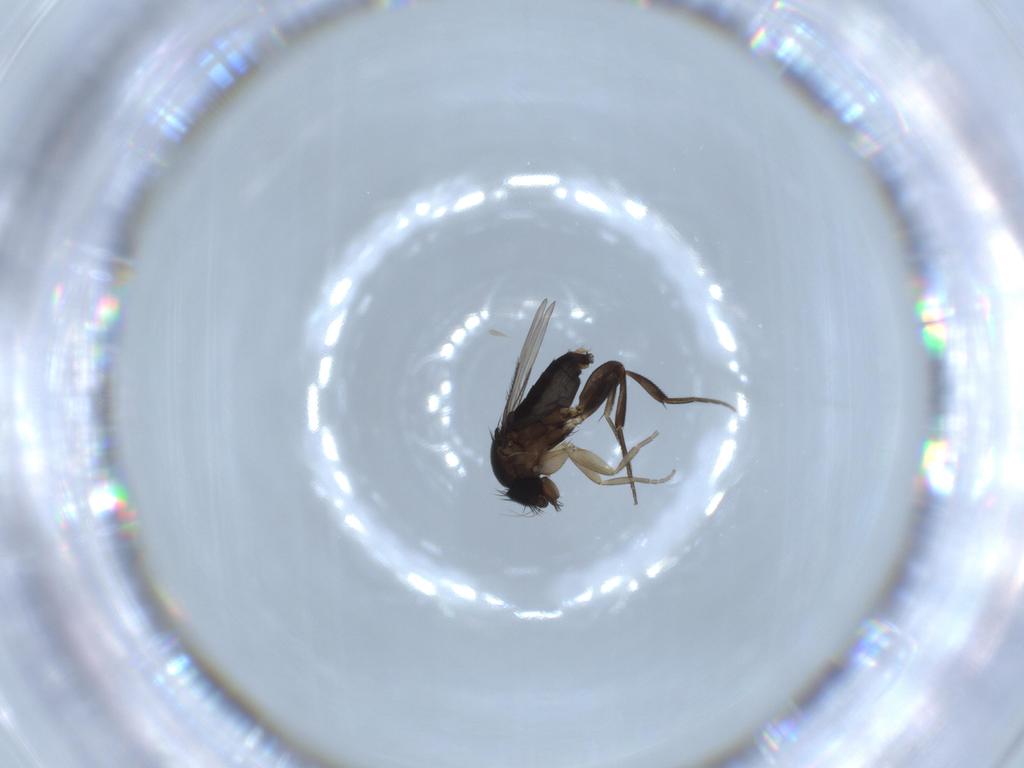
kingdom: Animalia
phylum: Arthropoda
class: Insecta
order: Diptera
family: Phoridae
